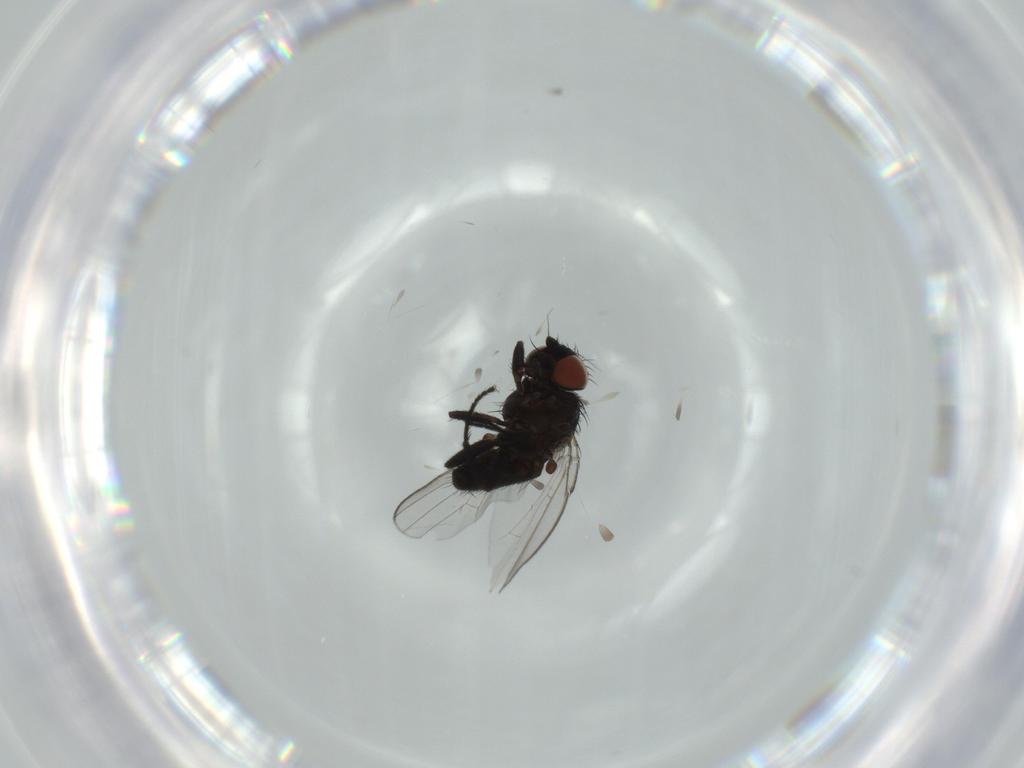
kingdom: Animalia
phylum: Arthropoda
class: Insecta
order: Diptera
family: Milichiidae
